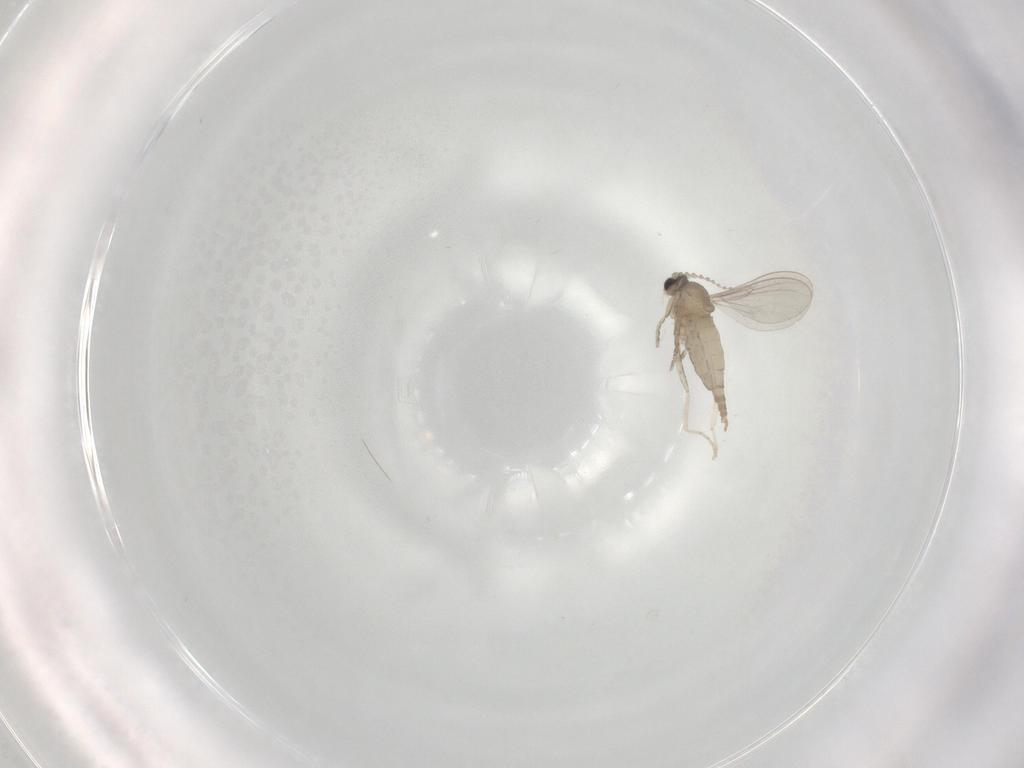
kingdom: Animalia
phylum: Arthropoda
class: Insecta
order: Diptera
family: Cecidomyiidae
